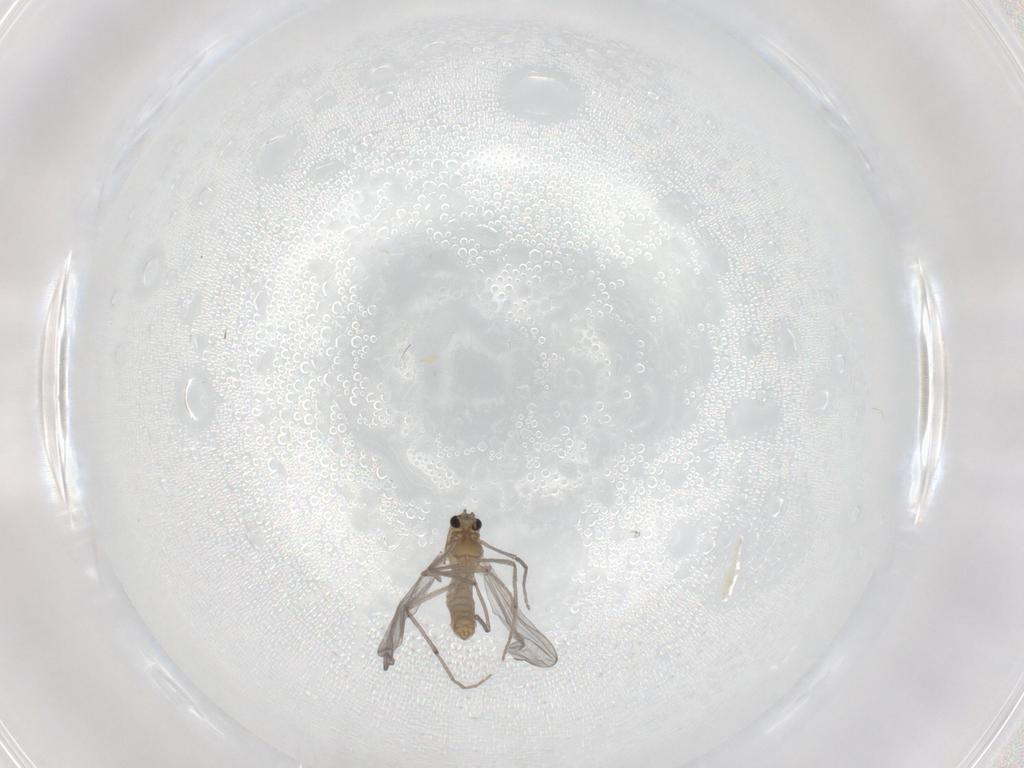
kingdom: Animalia
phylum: Arthropoda
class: Insecta
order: Diptera
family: Chironomidae
